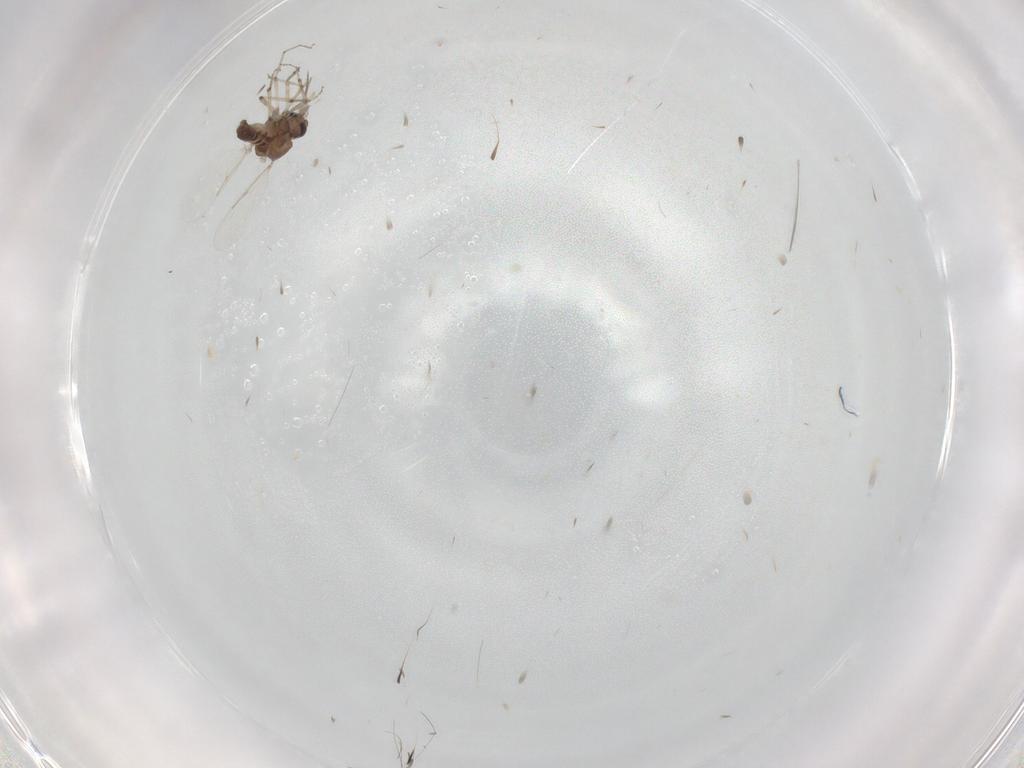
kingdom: Animalia
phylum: Arthropoda
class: Insecta
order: Diptera
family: Ceratopogonidae
